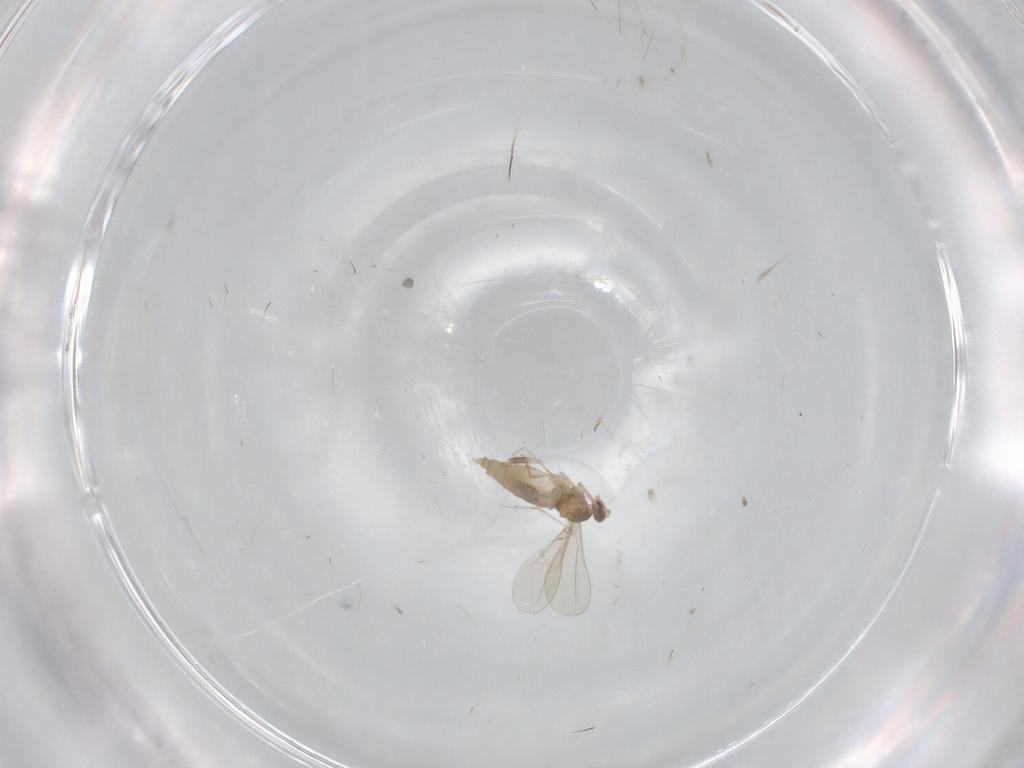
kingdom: Animalia
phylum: Arthropoda
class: Insecta
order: Diptera
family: Cecidomyiidae
